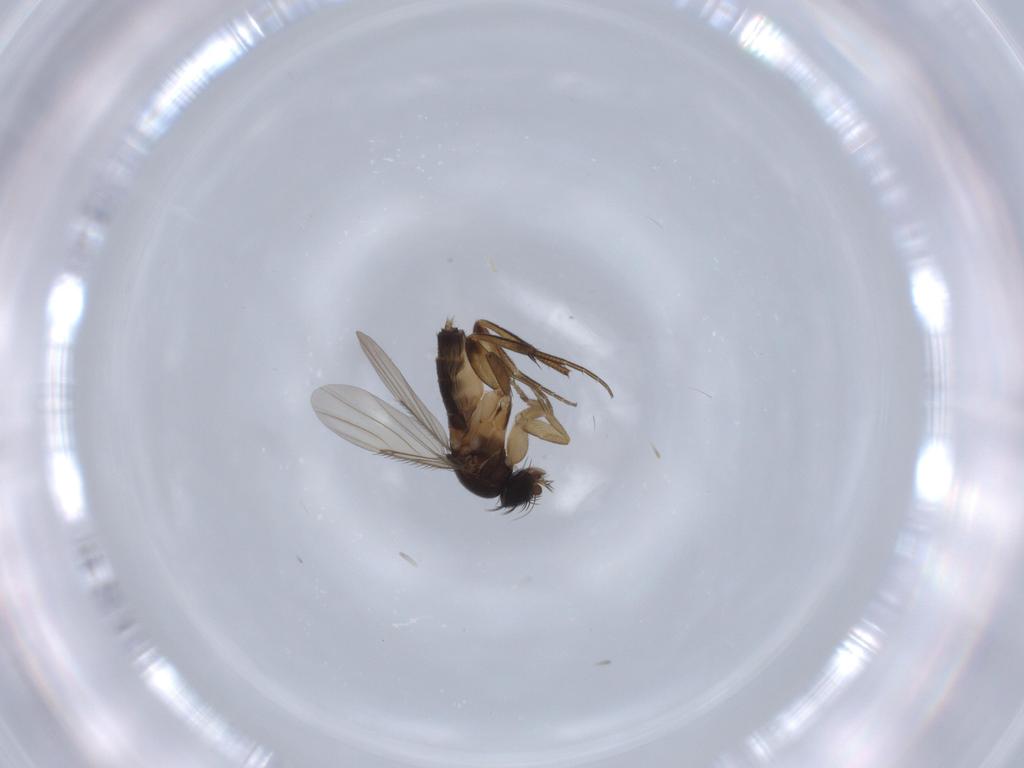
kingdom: Animalia
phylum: Arthropoda
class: Insecta
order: Diptera
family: Phoridae
